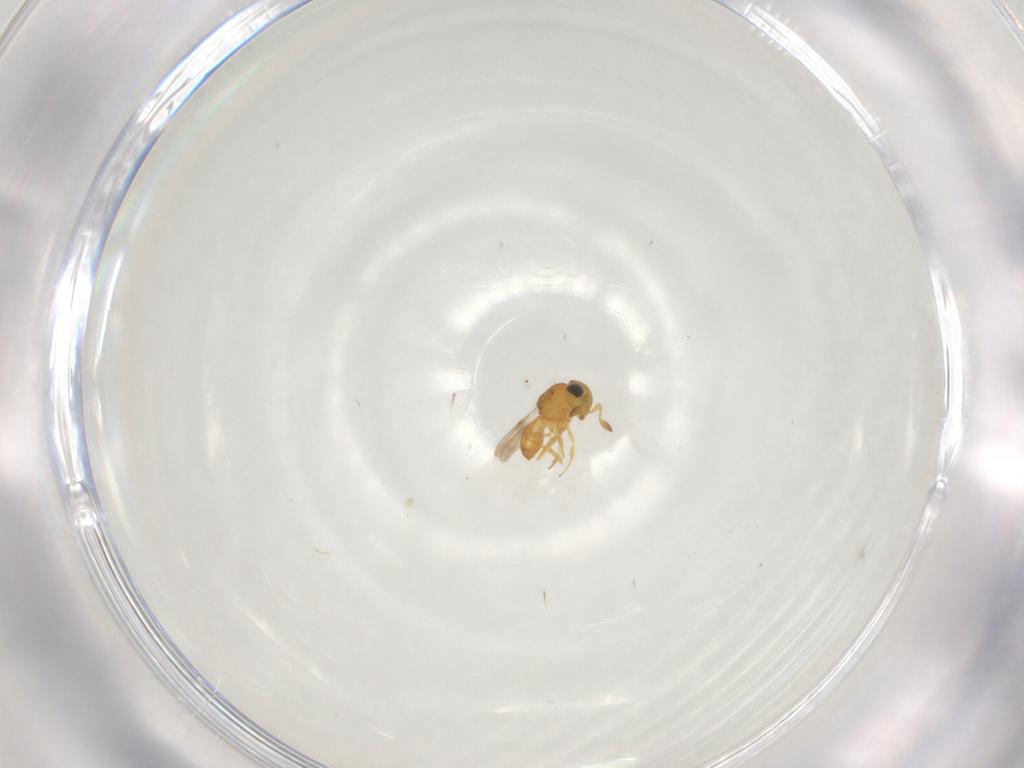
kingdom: Animalia
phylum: Arthropoda
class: Insecta
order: Hymenoptera
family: Scelionidae
